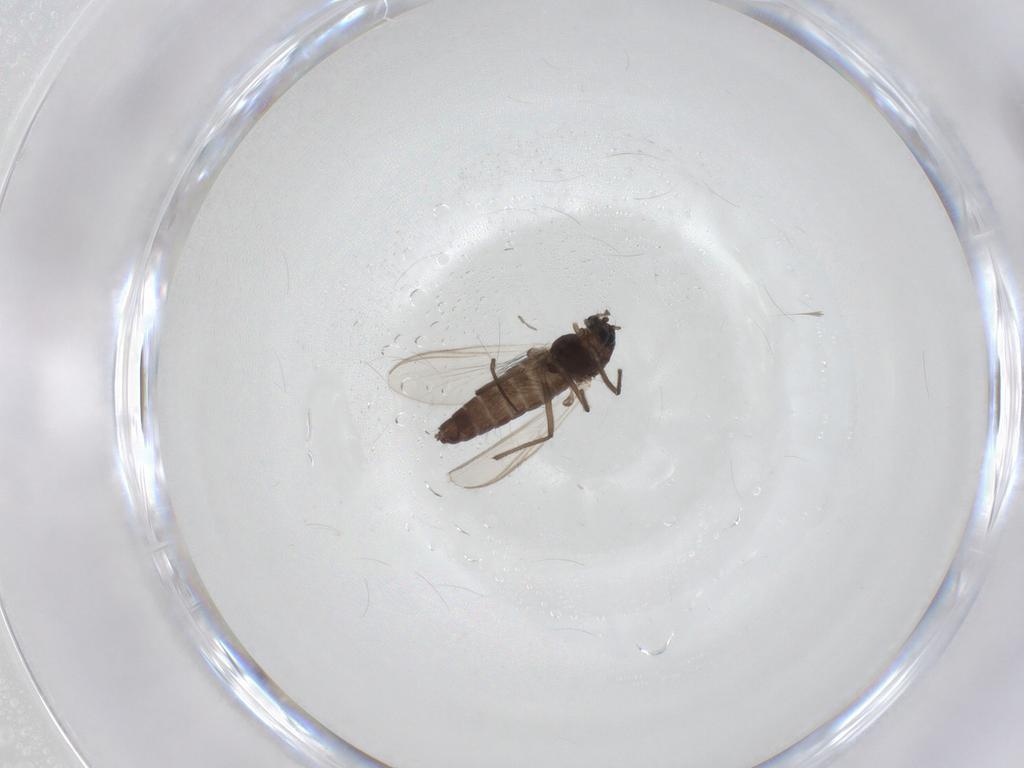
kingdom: Animalia
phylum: Arthropoda
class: Insecta
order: Diptera
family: Chironomidae
